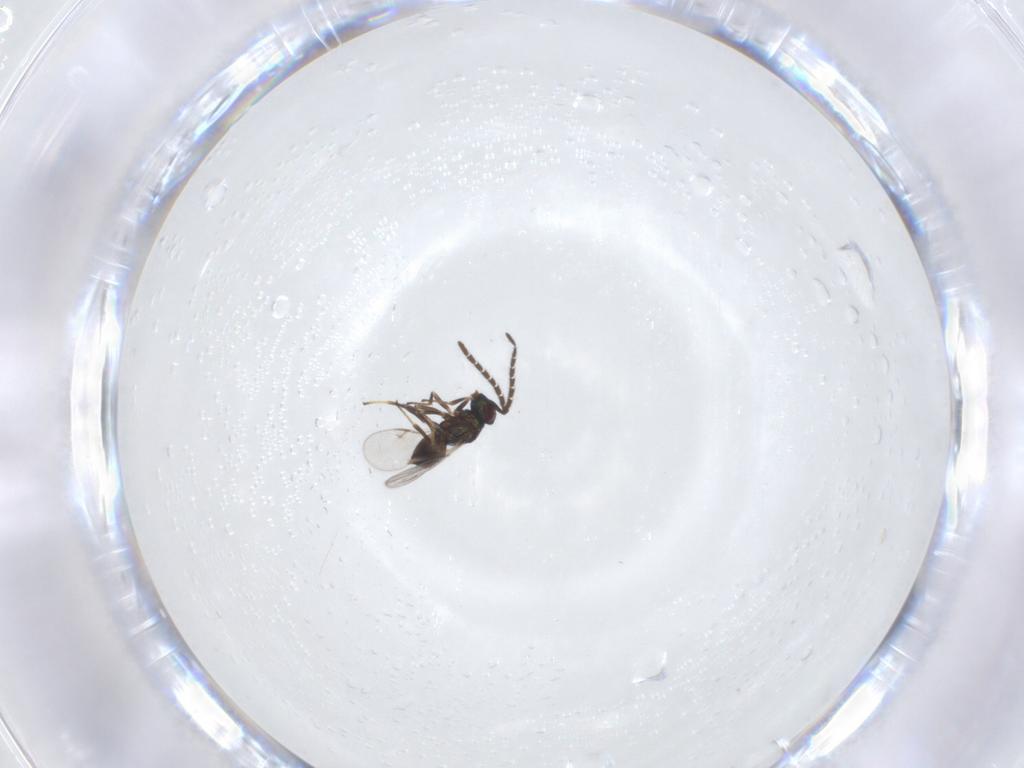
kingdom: Animalia
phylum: Arthropoda
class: Insecta
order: Hymenoptera
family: Encyrtidae
